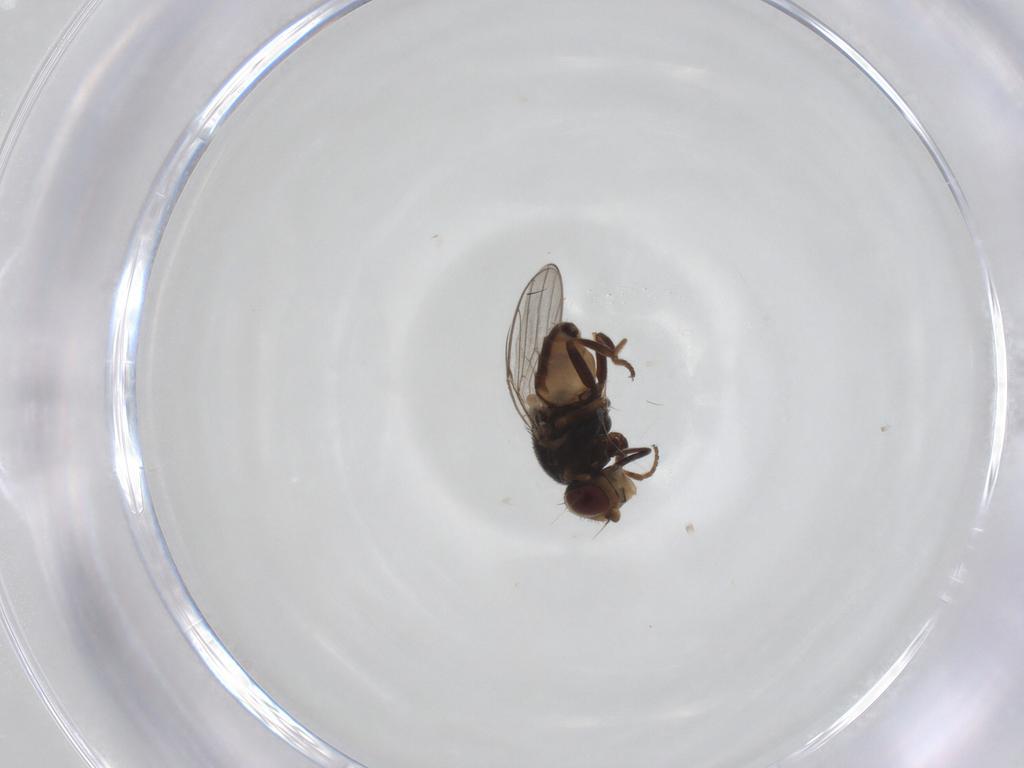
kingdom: Animalia
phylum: Arthropoda
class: Insecta
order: Diptera
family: Chloropidae
